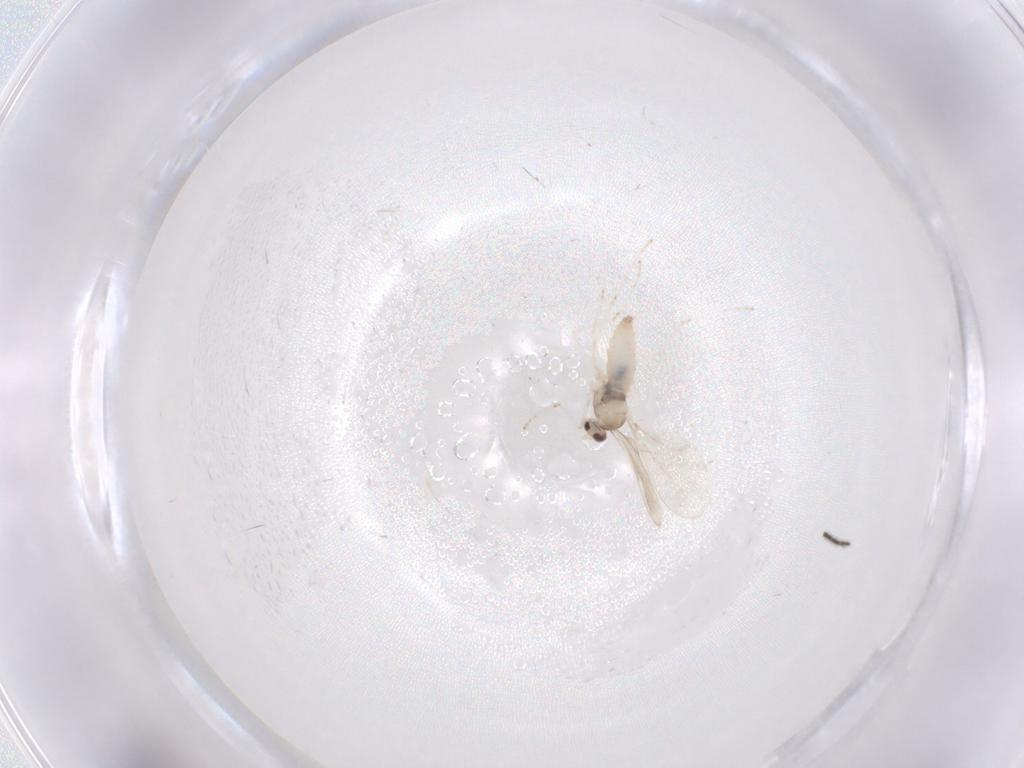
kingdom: Animalia
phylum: Arthropoda
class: Insecta
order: Diptera
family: Cecidomyiidae
